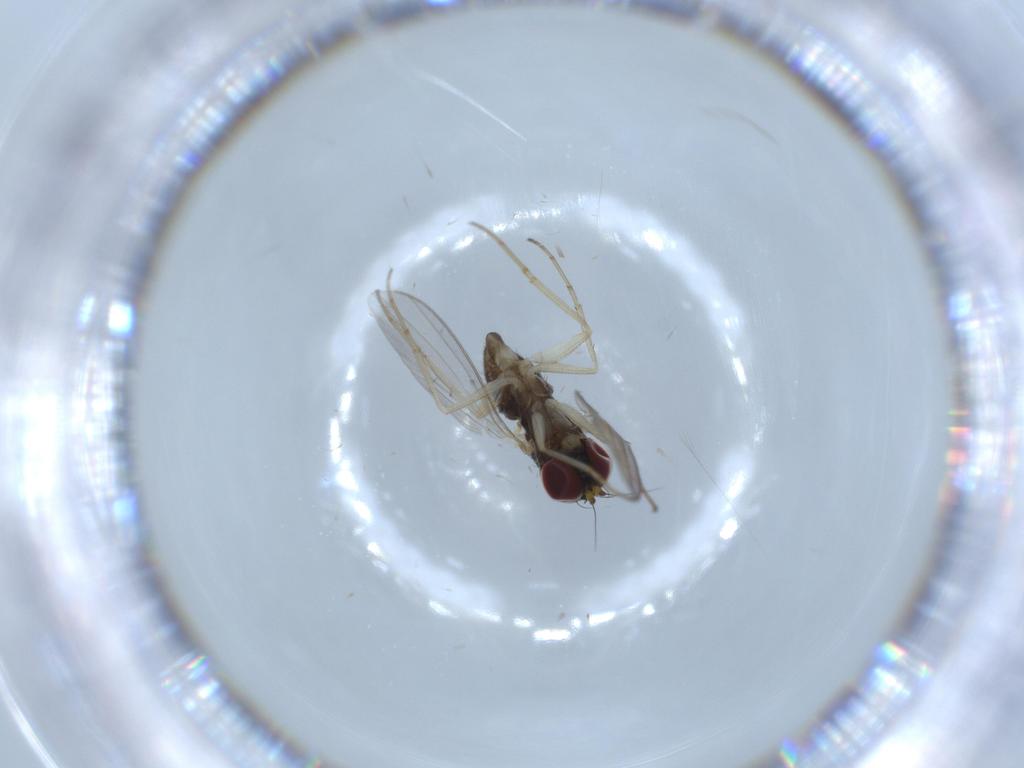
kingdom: Animalia
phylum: Arthropoda
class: Insecta
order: Diptera
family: Dolichopodidae
